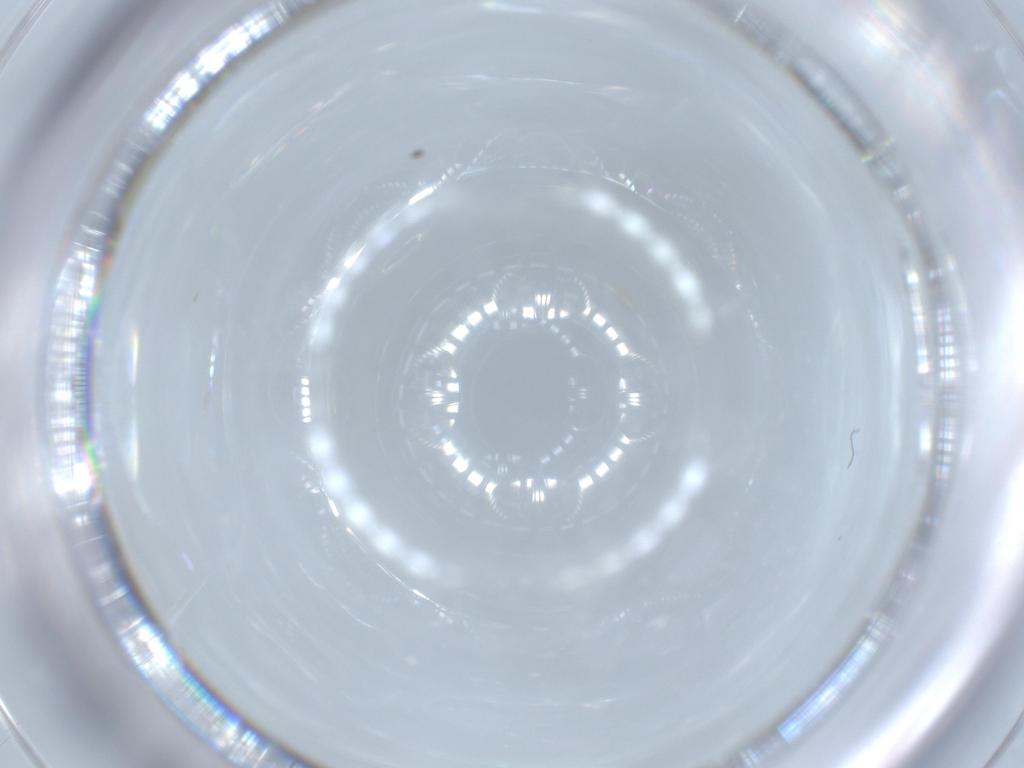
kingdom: Animalia
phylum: Arthropoda
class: Insecta
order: Hymenoptera
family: Mymaridae
